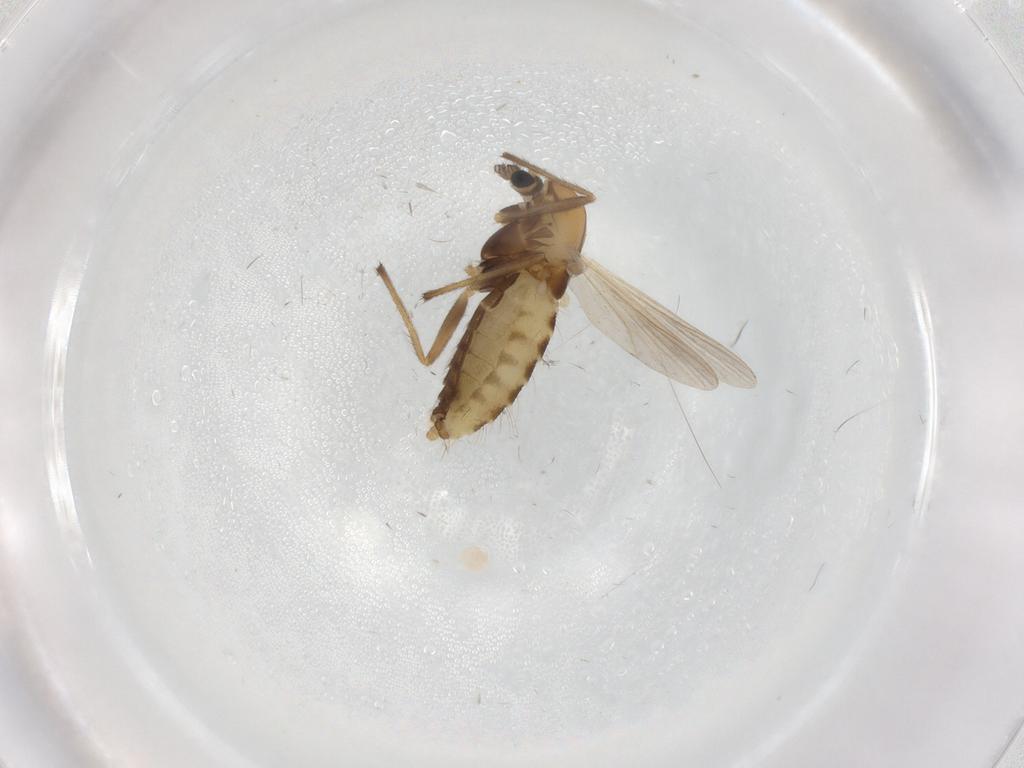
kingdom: Animalia
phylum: Arthropoda
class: Insecta
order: Diptera
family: Chironomidae
